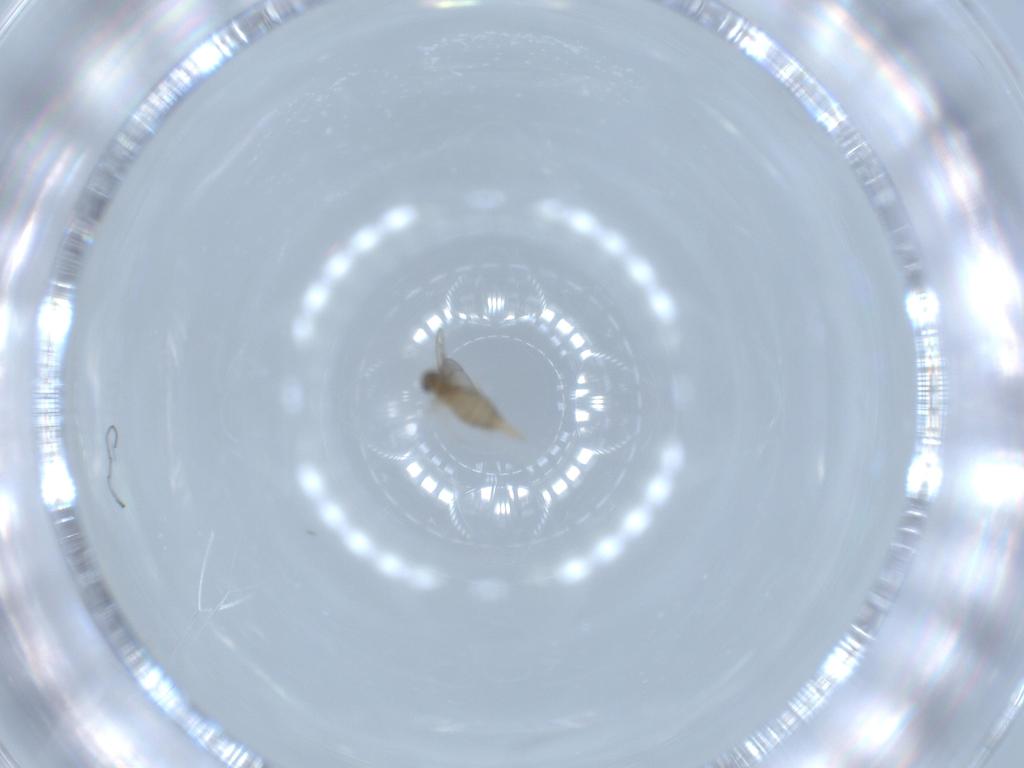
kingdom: Animalia
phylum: Arthropoda
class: Insecta
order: Diptera
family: Cecidomyiidae
